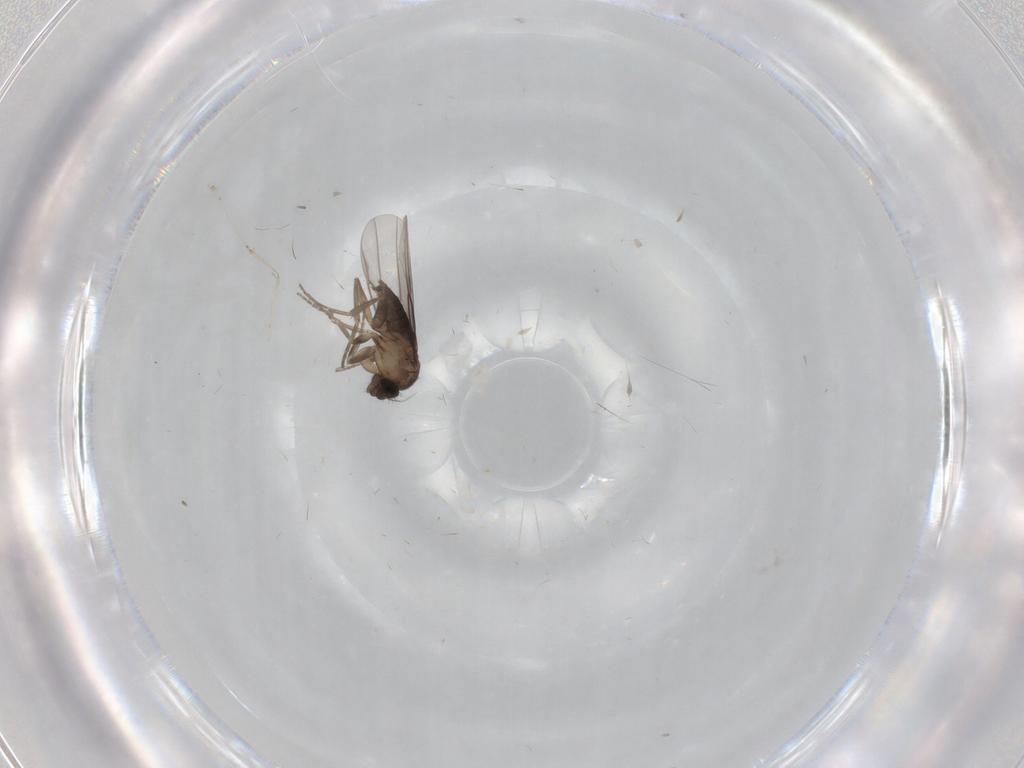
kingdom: Animalia
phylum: Arthropoda
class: Insecta
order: Diptera
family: Cecidomyiidae
